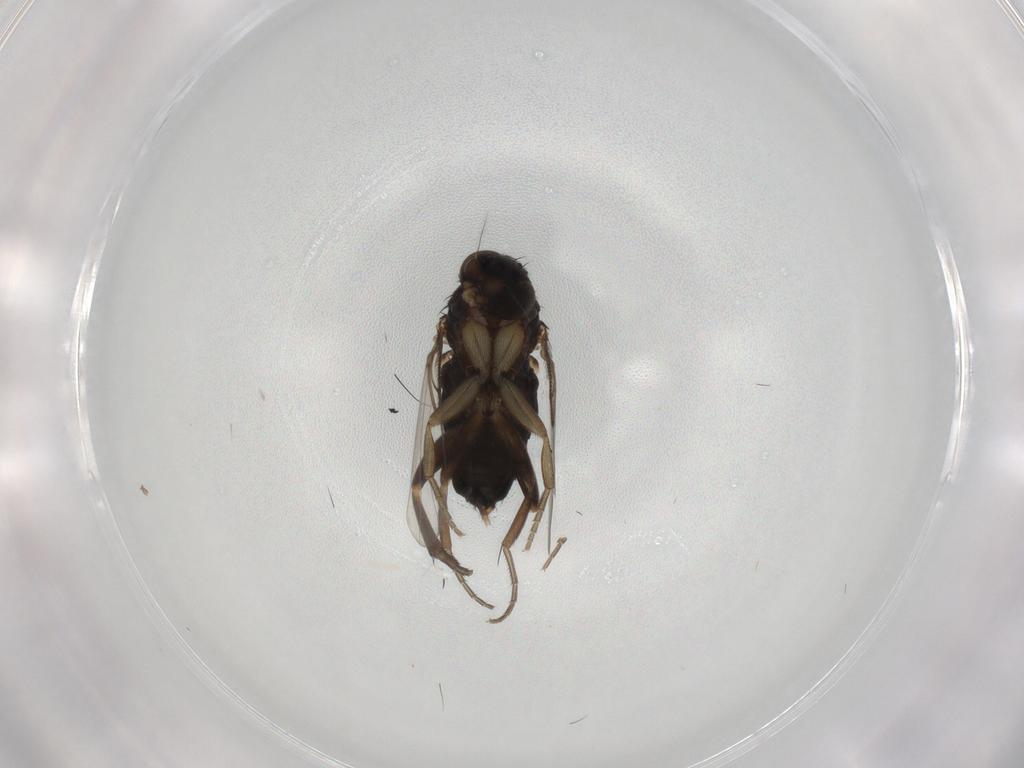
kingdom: Animalia
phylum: Arthropoda
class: Insecta
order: Diptera
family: Phoridae
